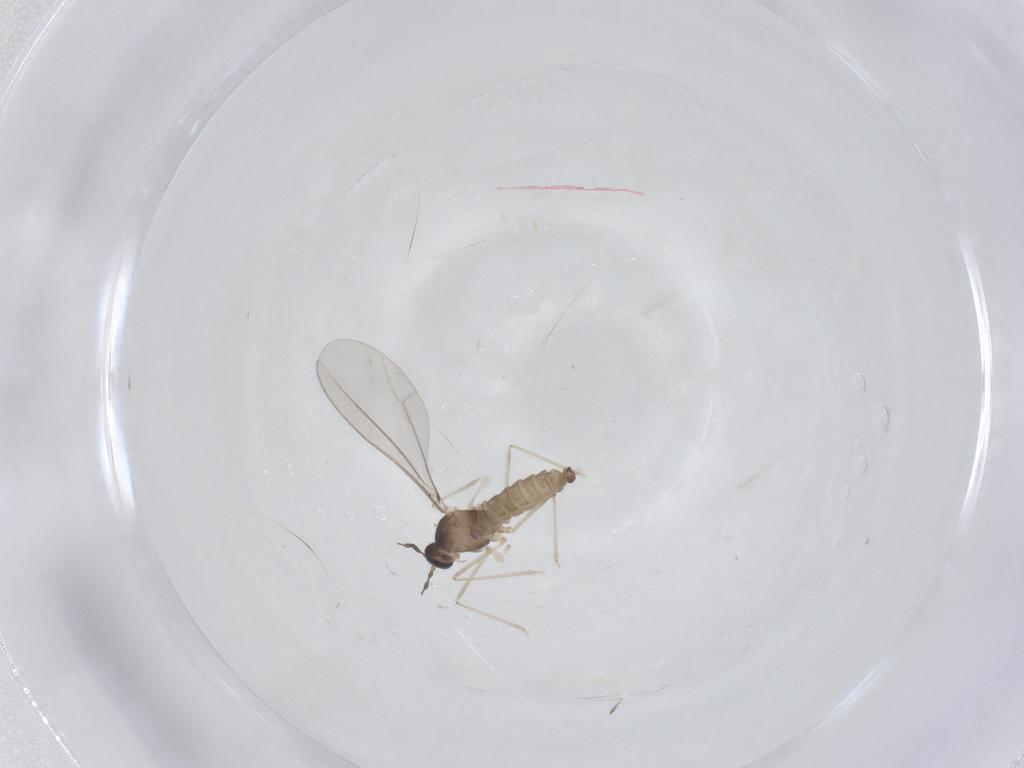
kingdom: Animalia
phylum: Arthropoda
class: Insecta
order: Diptera
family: Cecidomyiidae
